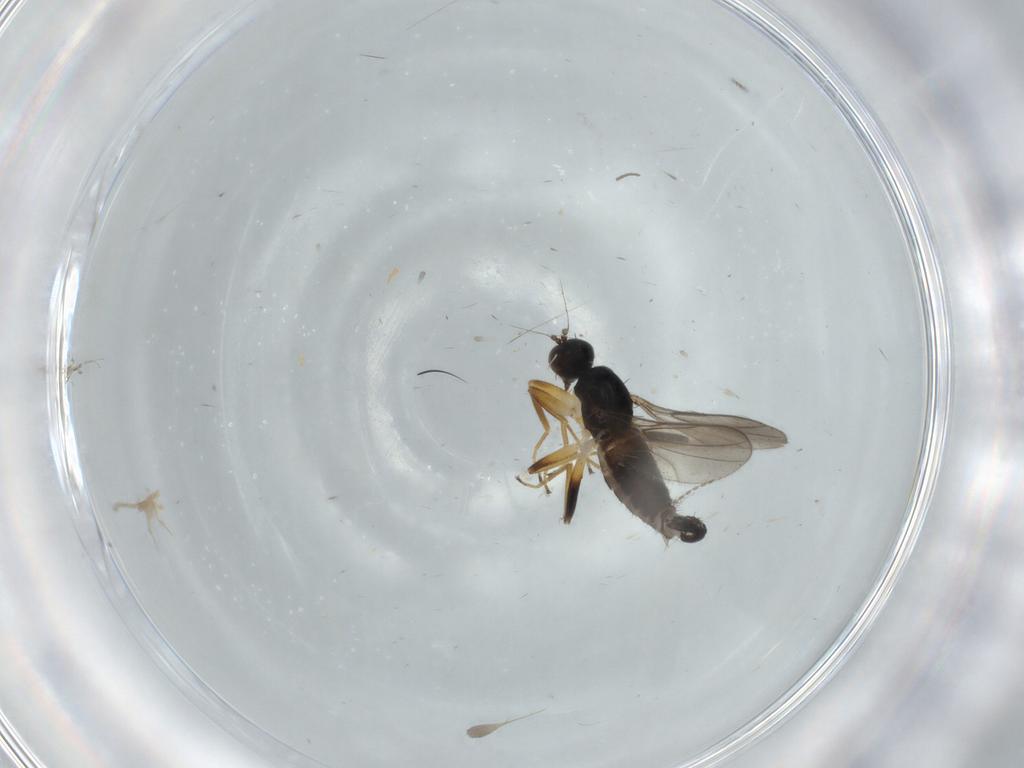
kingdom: Animalia
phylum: Arthropoda
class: Insecta
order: Diptera
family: Hybotidae
